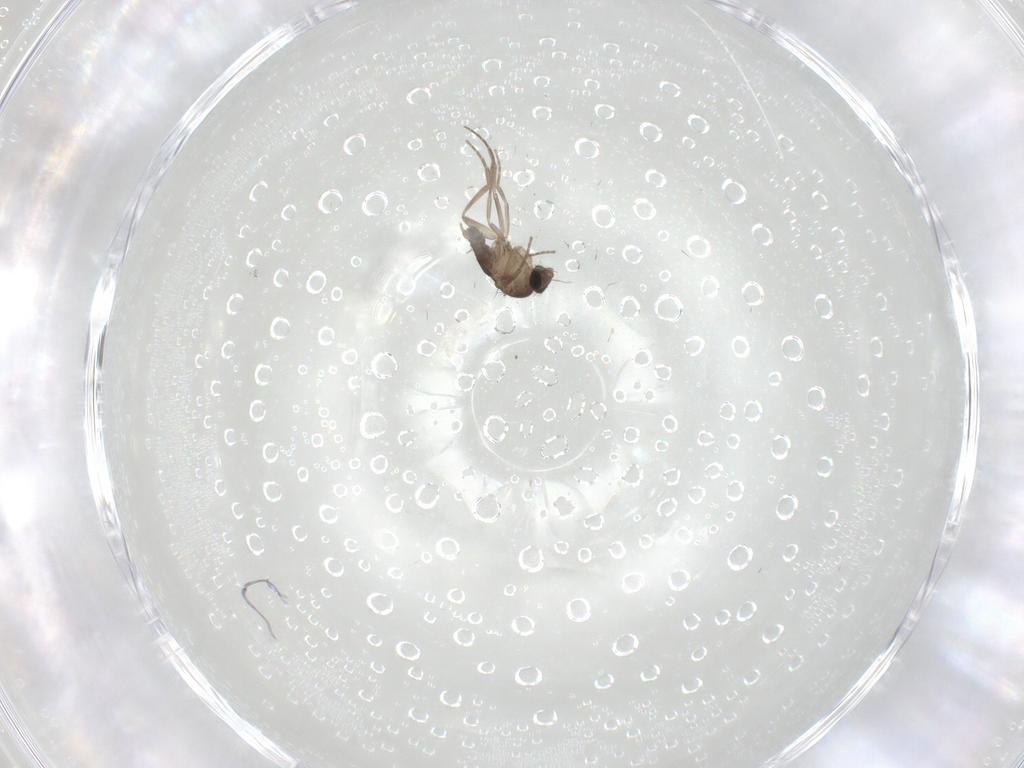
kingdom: Animalia
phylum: Arthropoda
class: Insecta
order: Diptera
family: Phoridae
